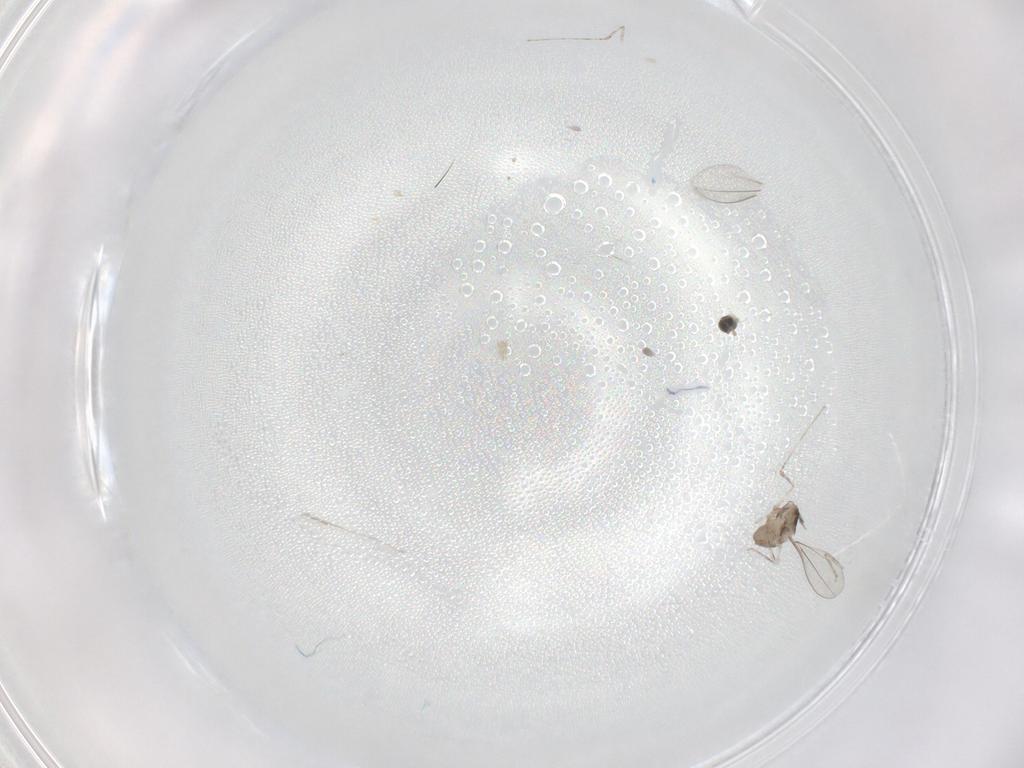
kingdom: Animalia
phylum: Arthropoda
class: Insecta
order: Diptera
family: Cecidomyiidae
